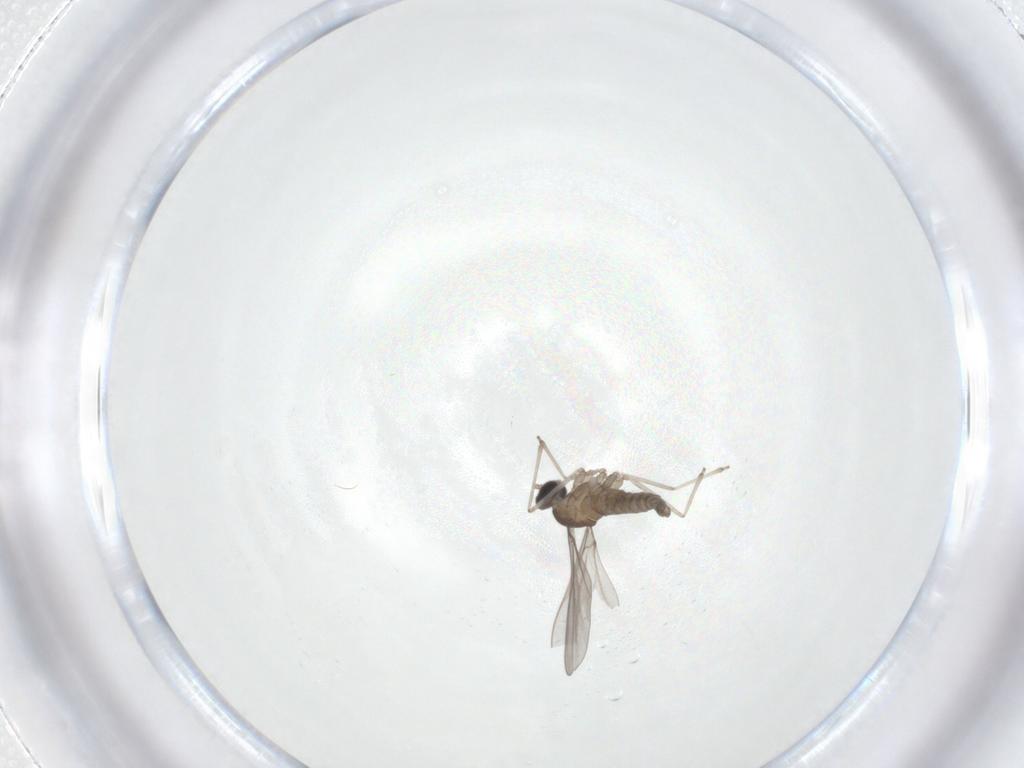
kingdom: Animalia
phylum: Arthropoda
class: Insecta
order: Diptera
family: Cecidomyiidae
